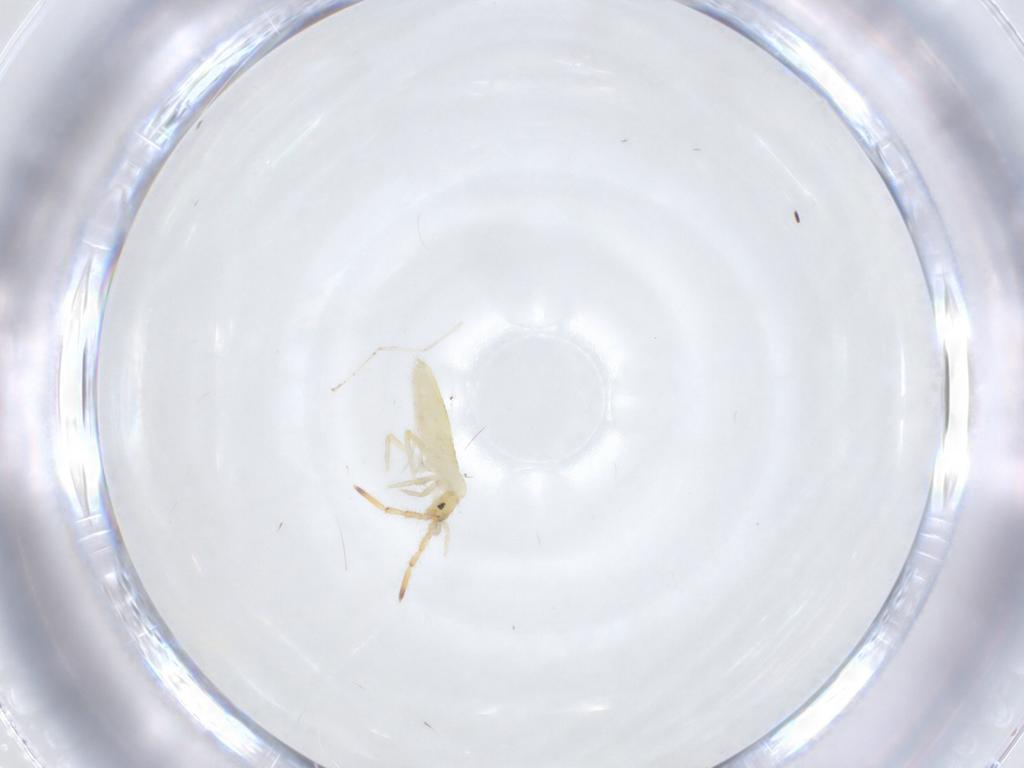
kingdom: Animalia
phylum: Arthropoda
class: Collembola
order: Entomobryomorpha
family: Entomobryidae
